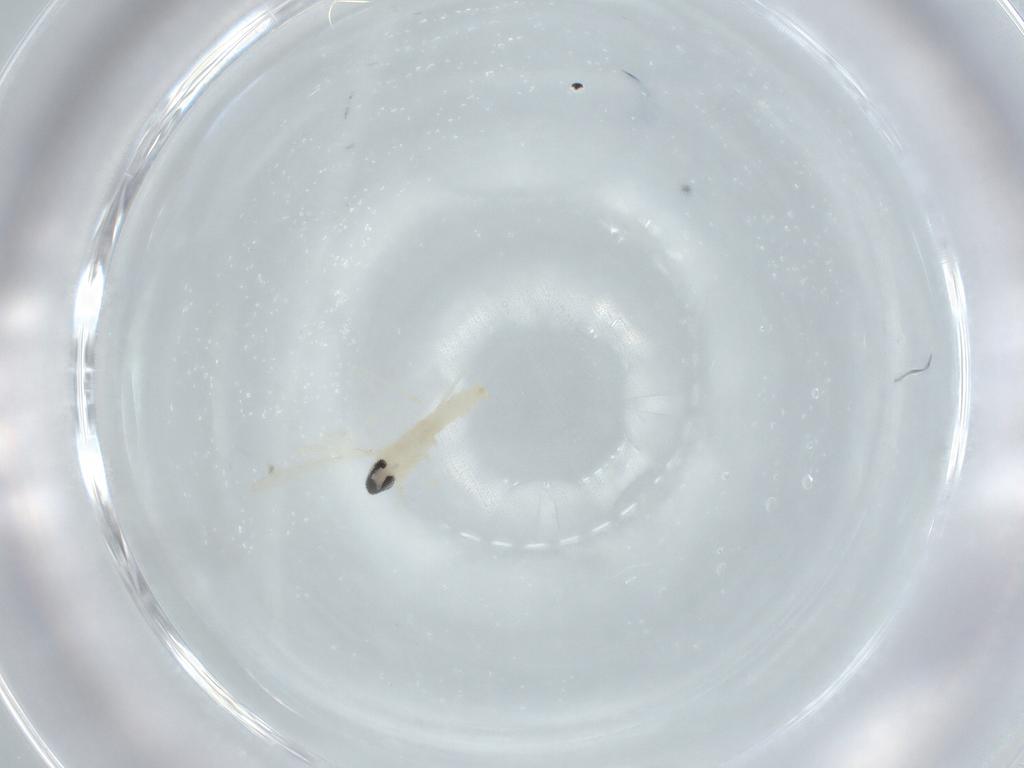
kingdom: Animalia
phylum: Arthropoda
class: Insecta
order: Diptera
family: Cecidomyiidae
